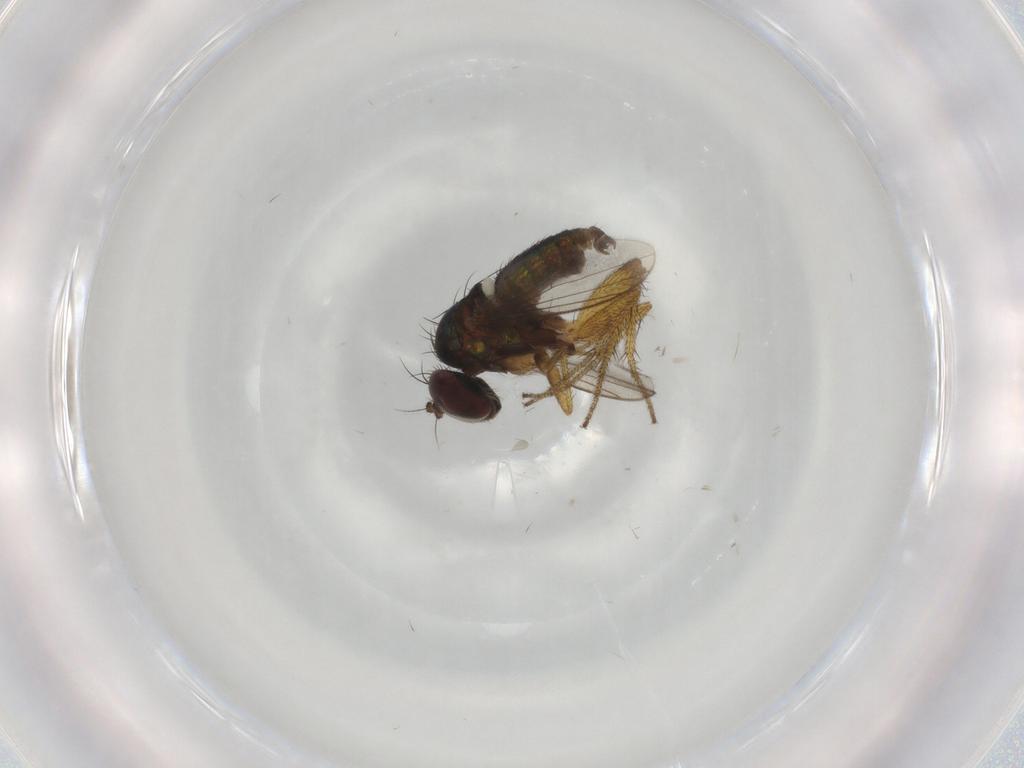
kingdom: Animalia
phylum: Arthropoda
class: Insecta
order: Diptera
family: Dolichopodidae
